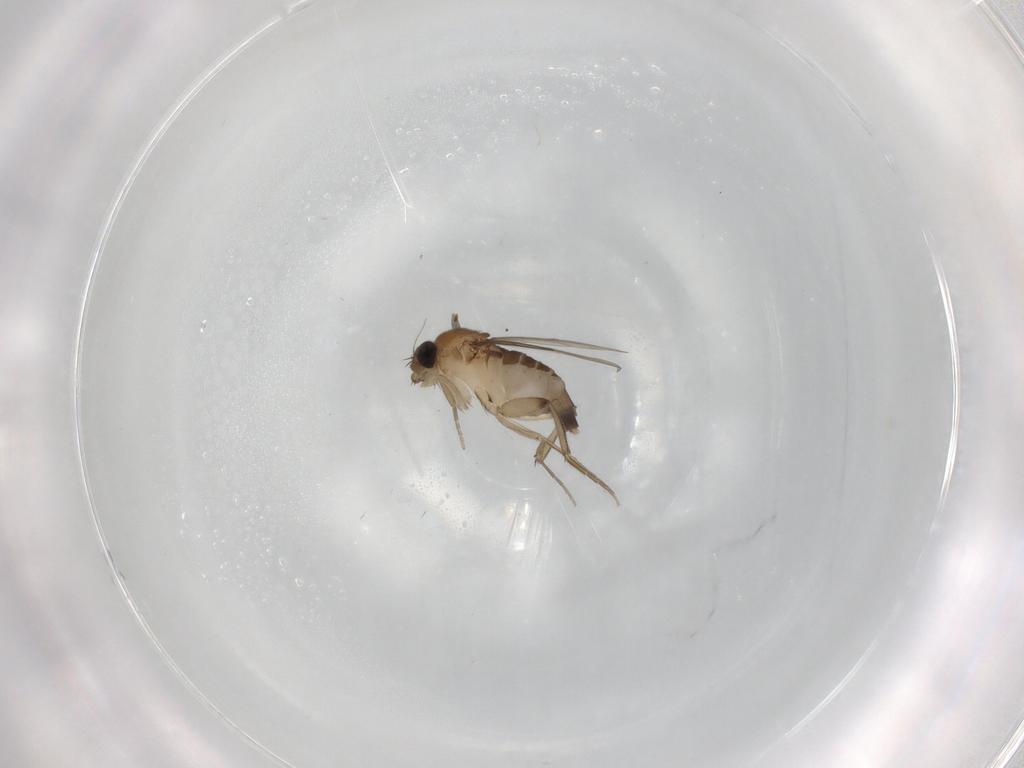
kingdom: Animalia
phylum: Arthropoda
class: Insecta
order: Diptera
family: Phoridae
